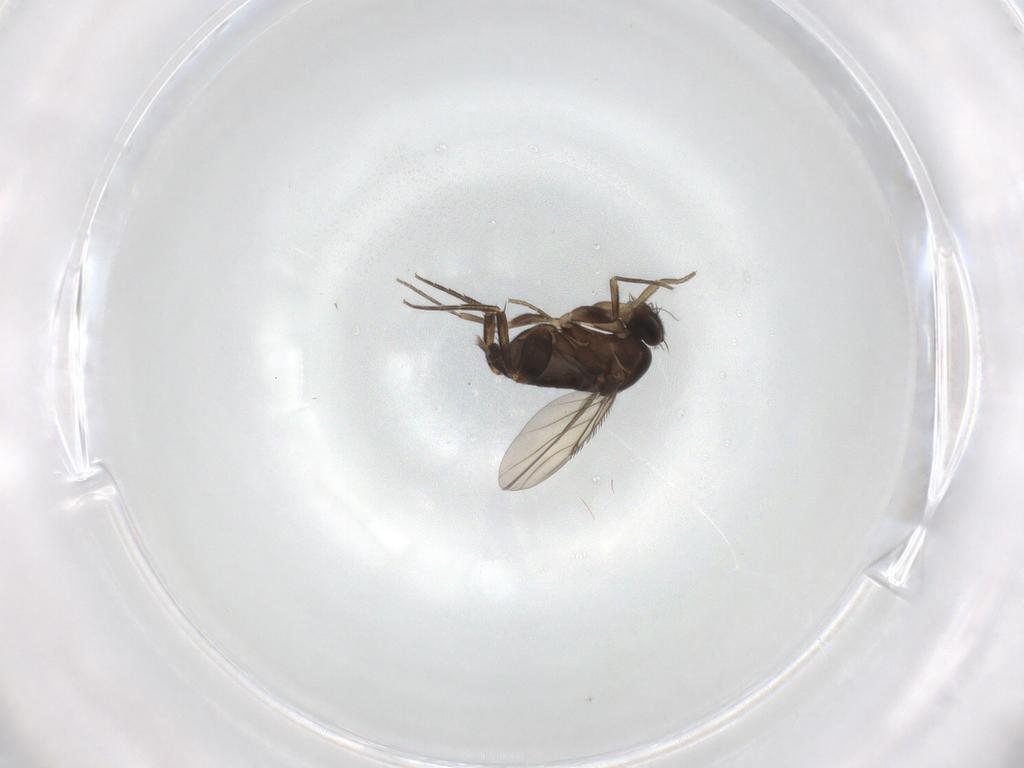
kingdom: Animalia
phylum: Arthropoda
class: Insecta
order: Diptera
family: Phoridae
